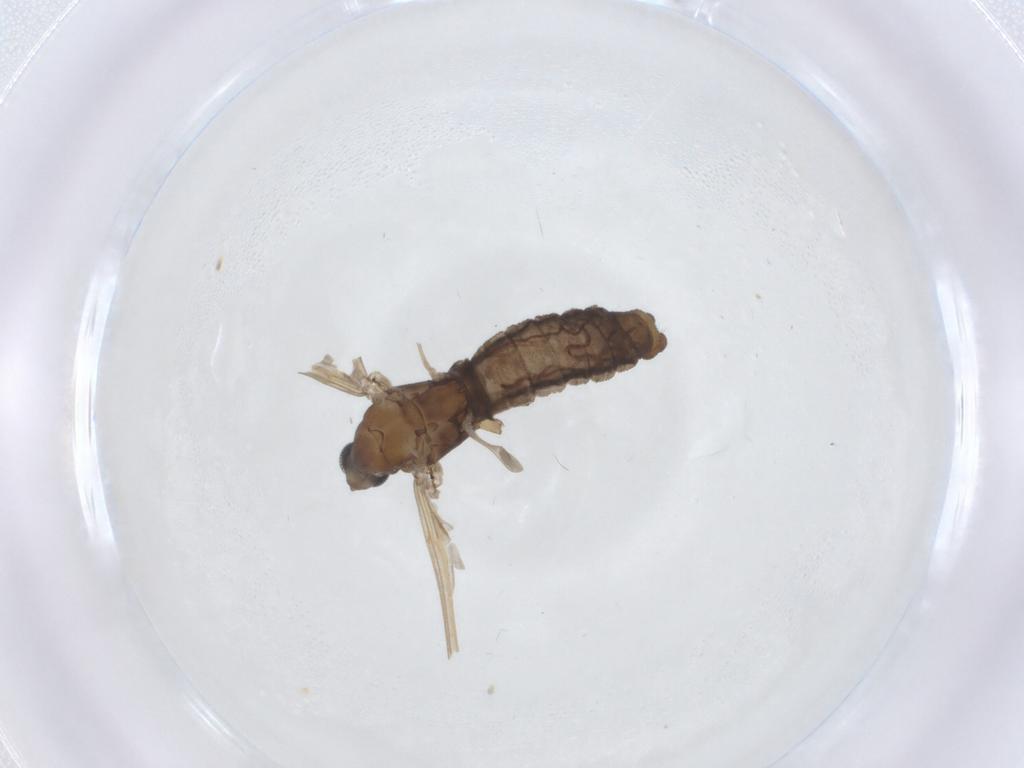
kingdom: Animalia
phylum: Arthropoda
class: Insecta
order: Diptera
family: Limoniidae
